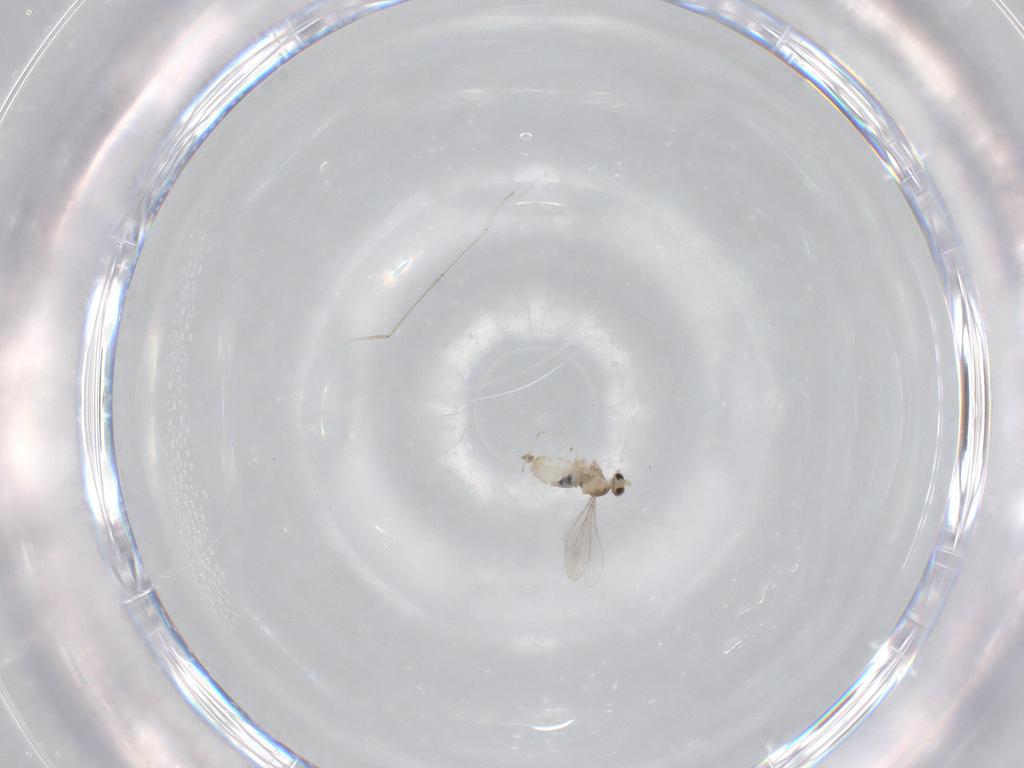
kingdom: Animalia
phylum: Arthropoda
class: Insecta
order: Diptera
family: Cecidomyiidae
